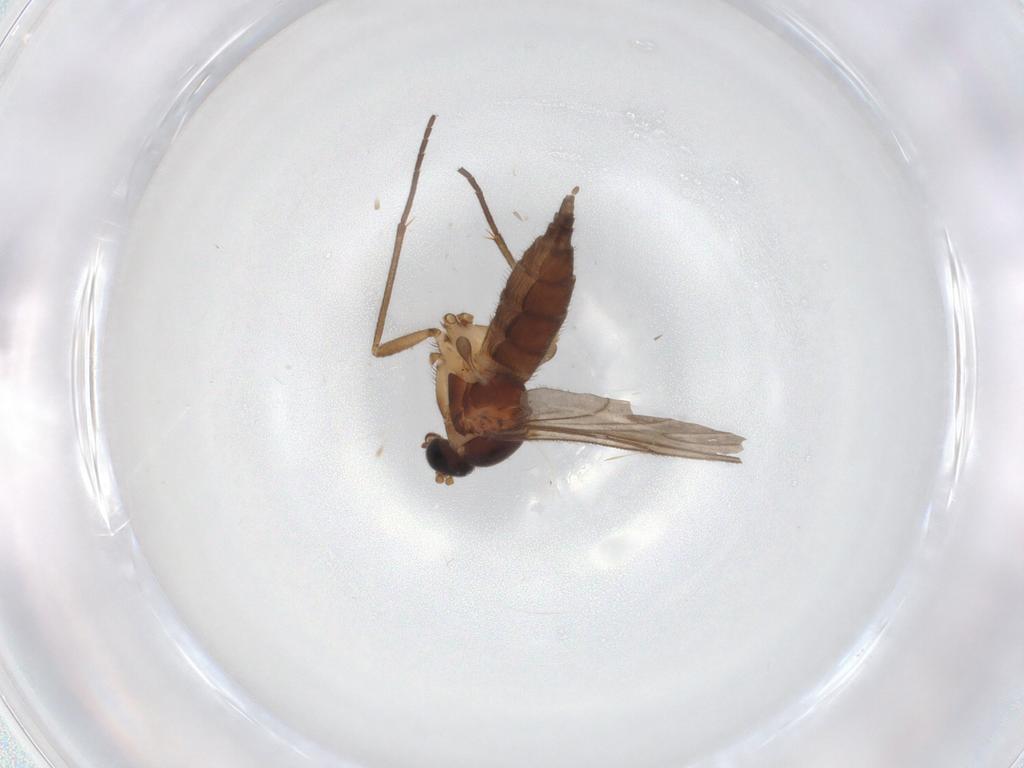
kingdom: Animalia
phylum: Arthropoda
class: Insecta
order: Diptera
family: Sciaridae
